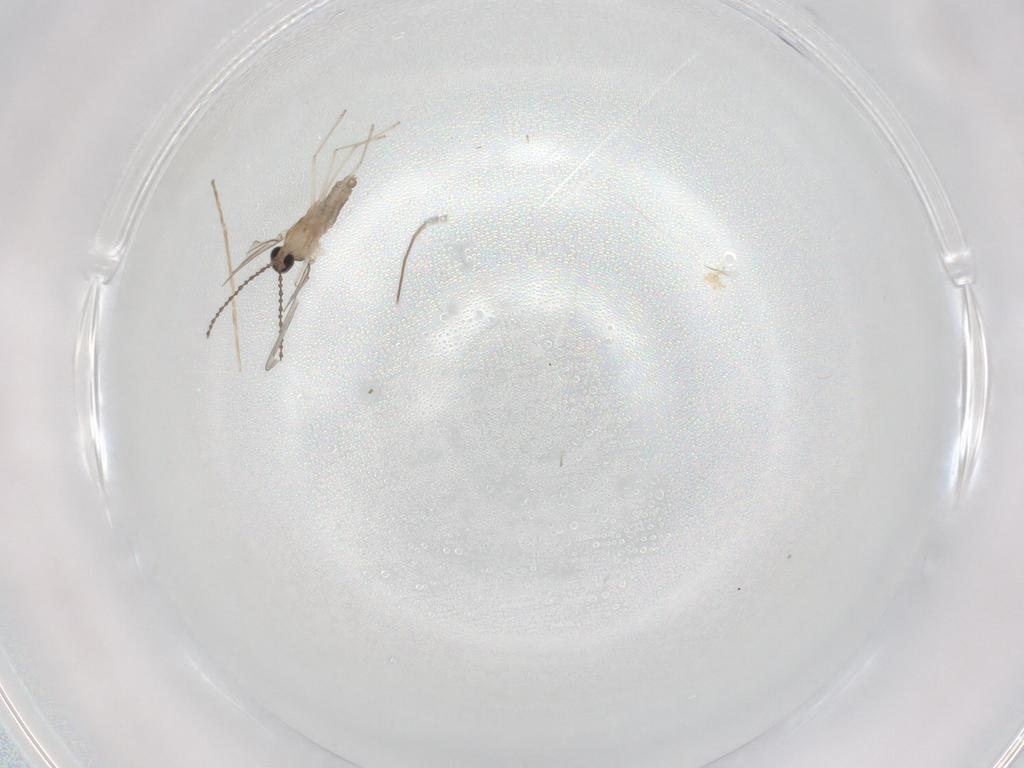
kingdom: Animalia
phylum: Arthropoda
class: Insecta
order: Diptera
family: Cecidomyiidae
